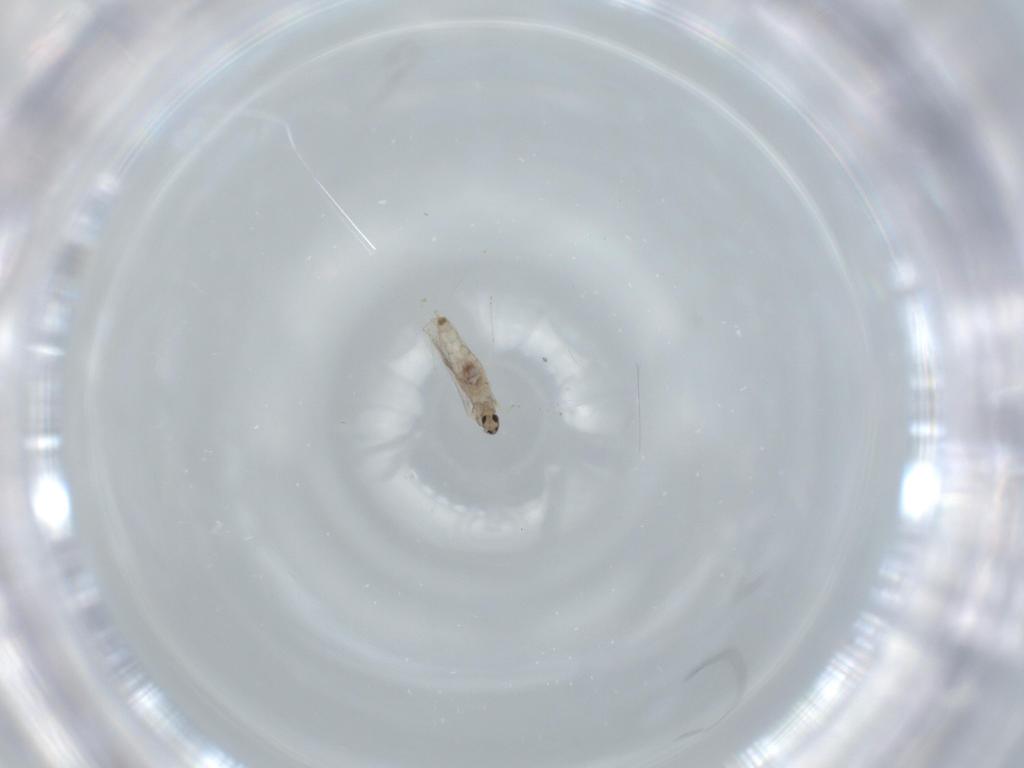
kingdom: Animalia
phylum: Arthropoda
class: Insecta
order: Diptera
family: Cecidomyiidae
